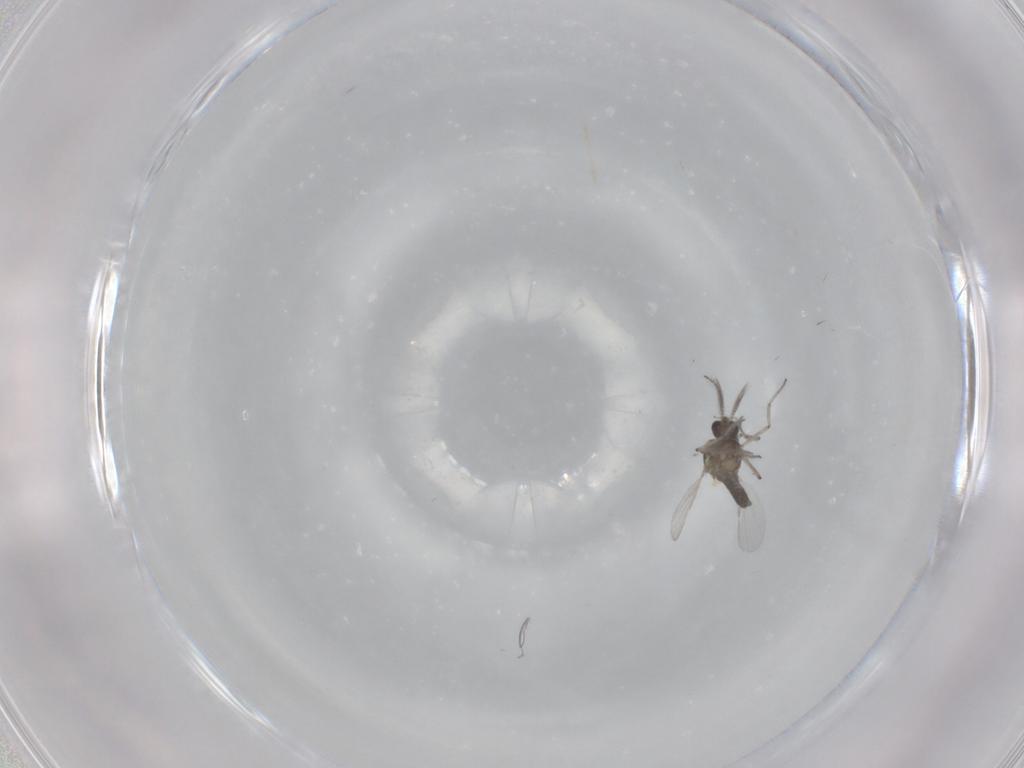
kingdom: Animalia
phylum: Arthropoda
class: Insecta
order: Diptera
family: Ceratopogonidae
